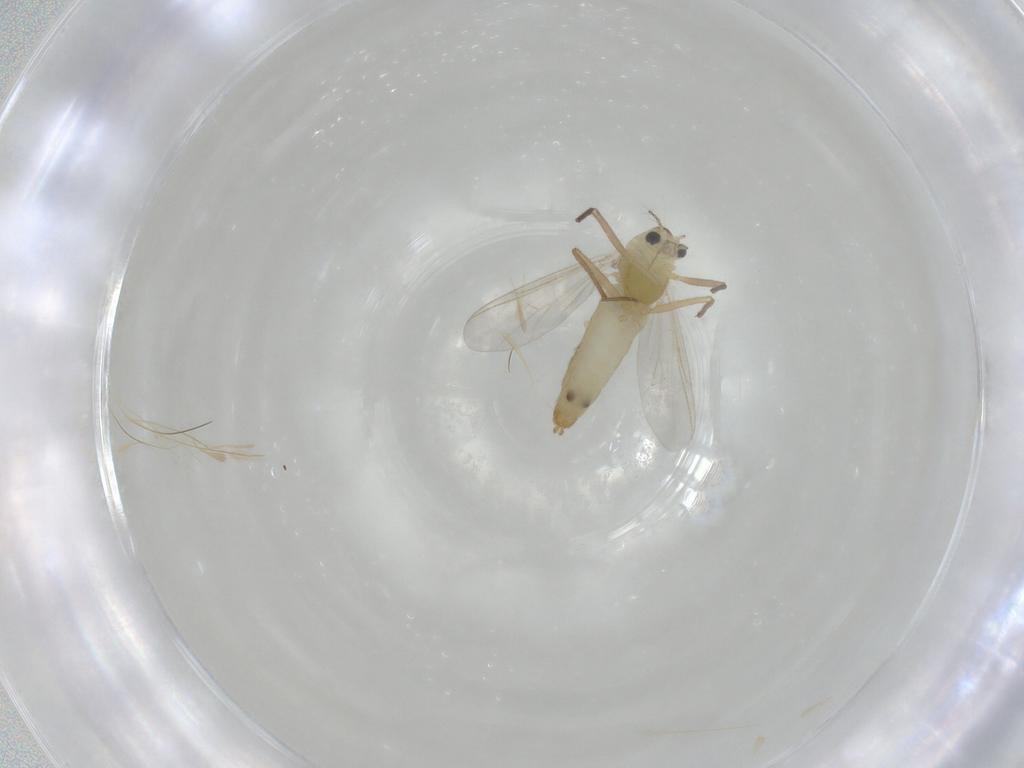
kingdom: Animalia
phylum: Arthropoda
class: Insecta
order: Diptera
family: Chironomidae
